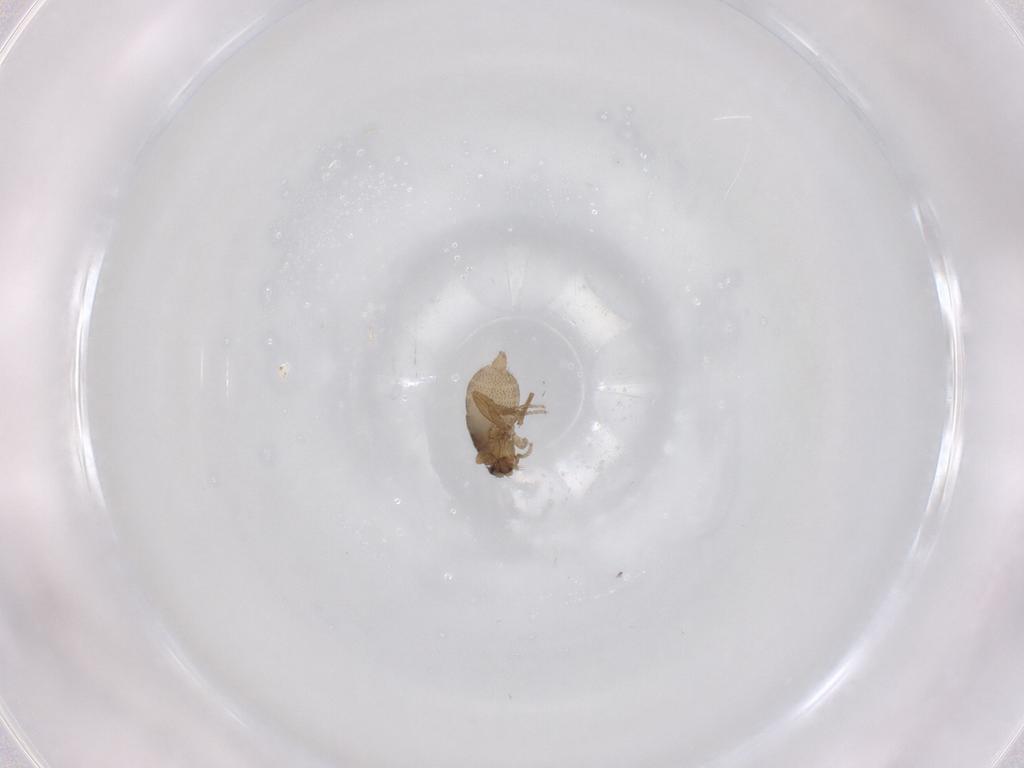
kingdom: Animalia
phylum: Arthropoda
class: Insecta
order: Diptera
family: Phoridae
